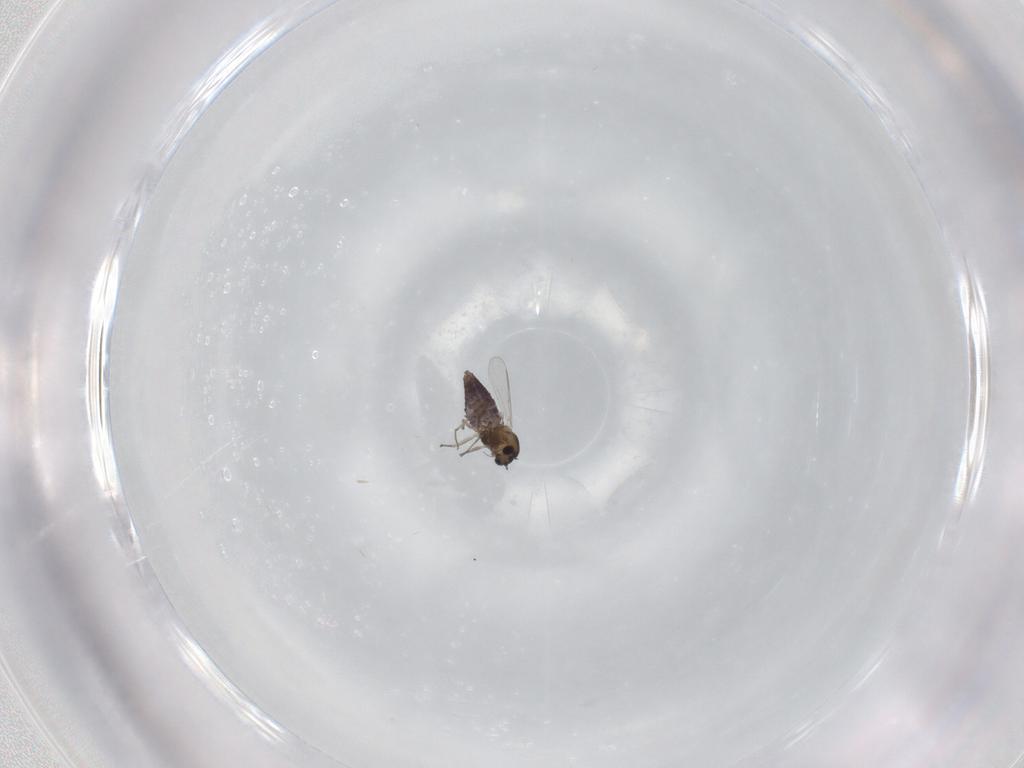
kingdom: Animalia
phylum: Arthropoda
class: Insecta
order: Diptera
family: Chironomidae
